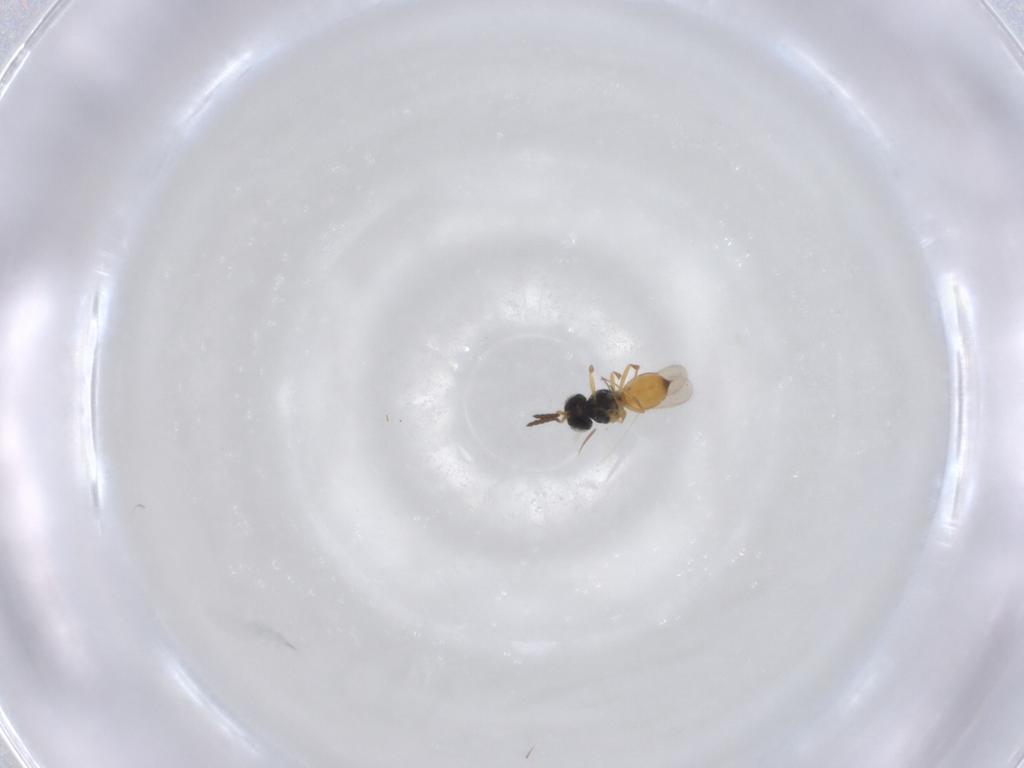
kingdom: Animalia
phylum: Arthropoda
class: Insecta
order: Hymenoptera
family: Scelionidae
